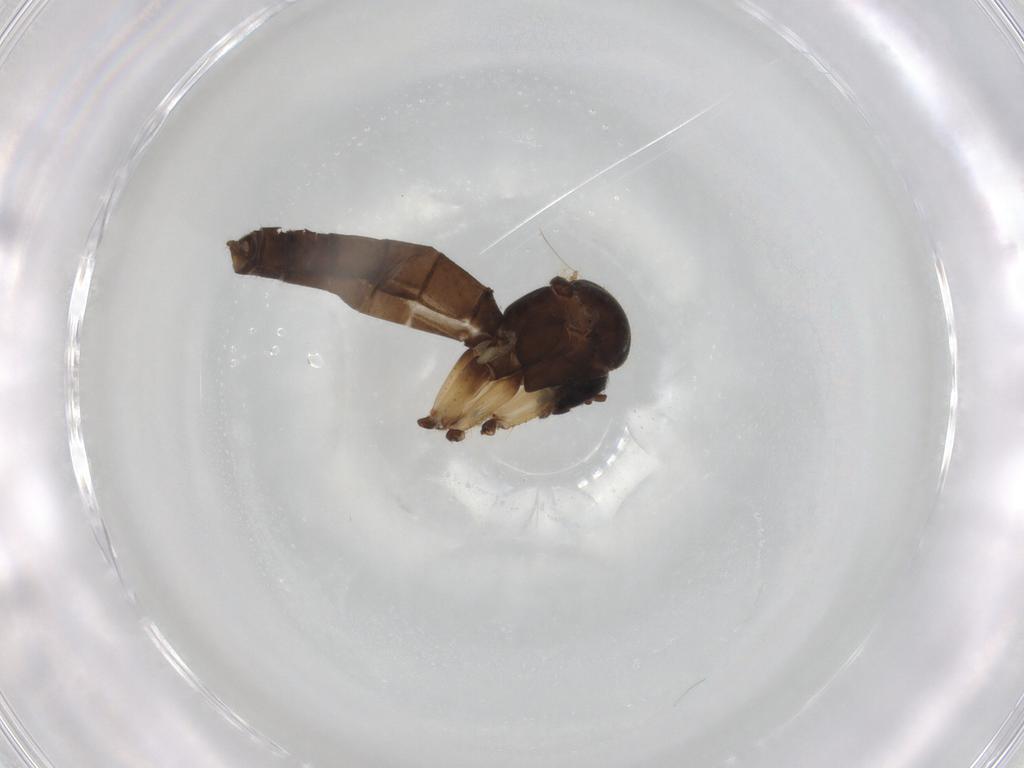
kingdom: Animalia
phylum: Arthropoda
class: Insecta
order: Diptera
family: Mycetophilidae
